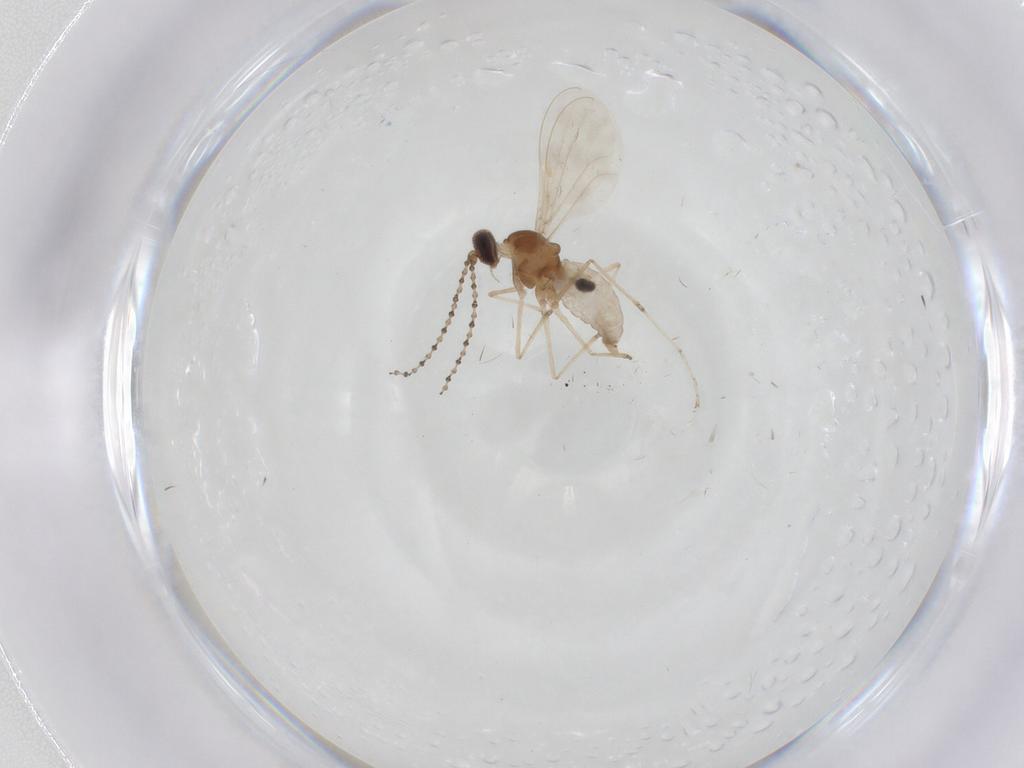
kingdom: Animalia
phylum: Arthropoda
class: Insecta
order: Diptera
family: Cecidomyiidae
